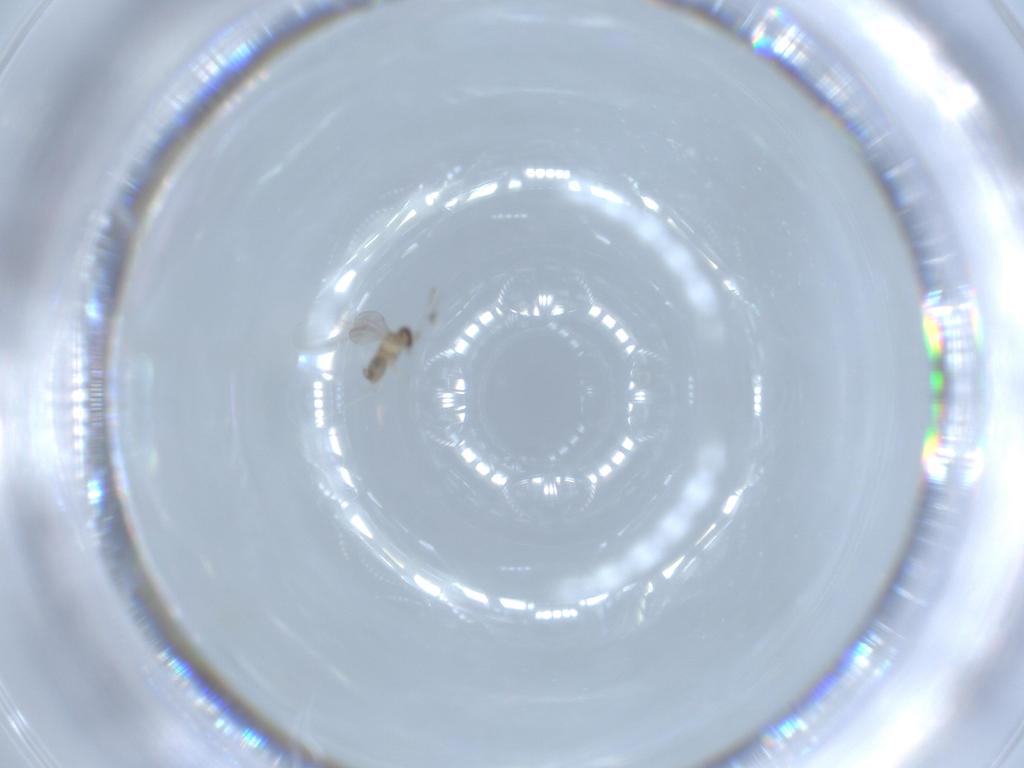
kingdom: Animalia
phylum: Arthropoda
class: Insecta
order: Diptera
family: Cecidomyiidae
